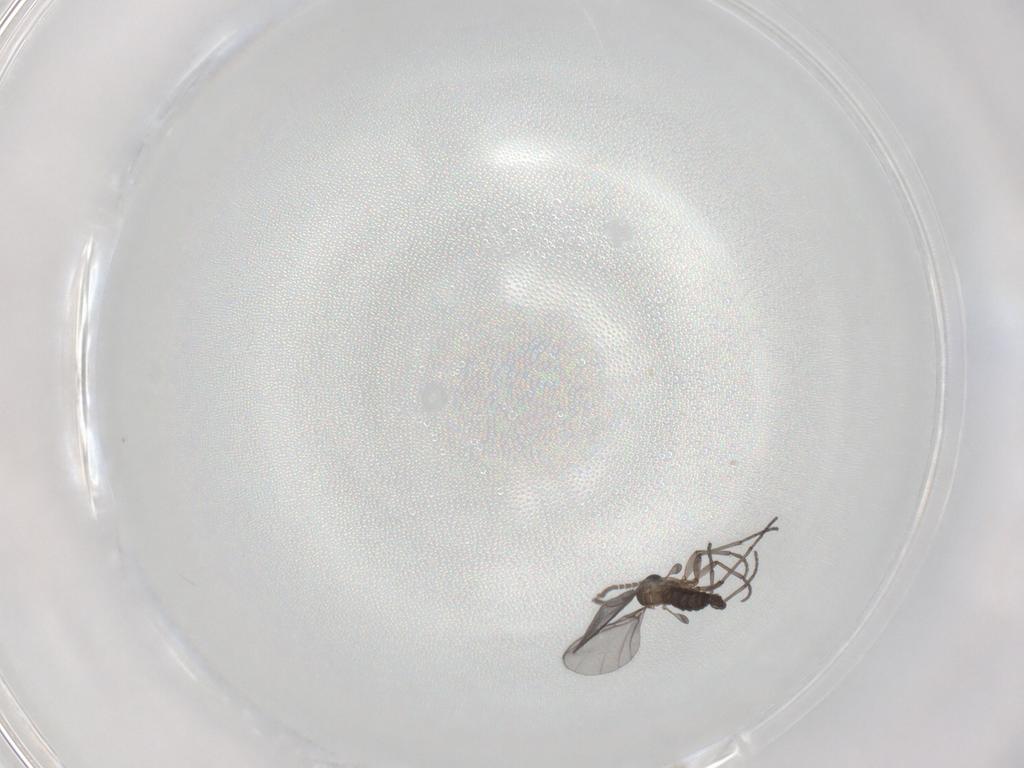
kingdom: Animalia
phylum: Arthropoda
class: Insecta
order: Diptera
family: Sciaridae
